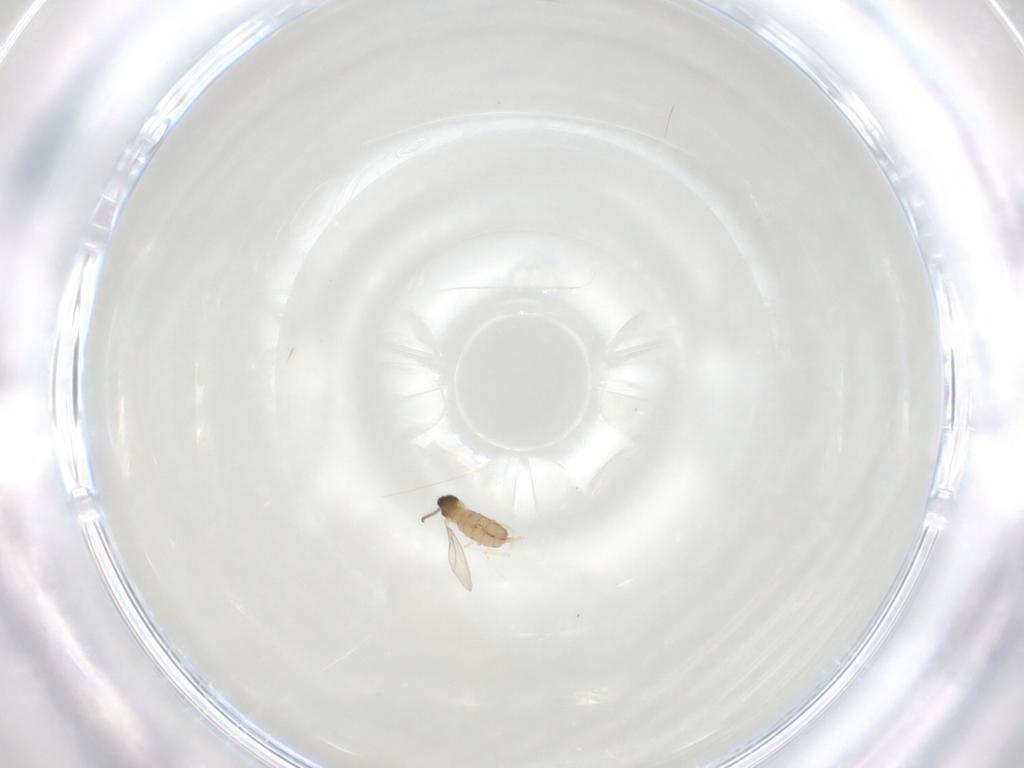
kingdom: Animalia
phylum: Arthropoda
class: Insecta
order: Diptera
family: Cecidomyiidae
